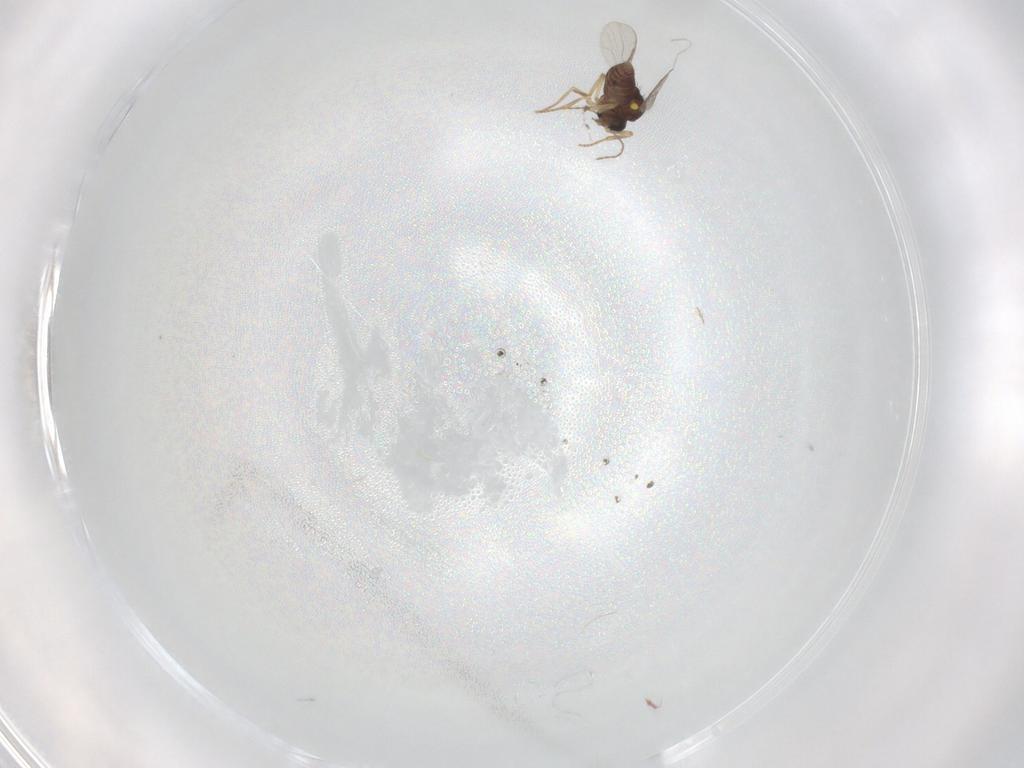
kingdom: Animalia
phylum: Arthropoda
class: Insecta
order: Diptera
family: Ceratopogonidae
